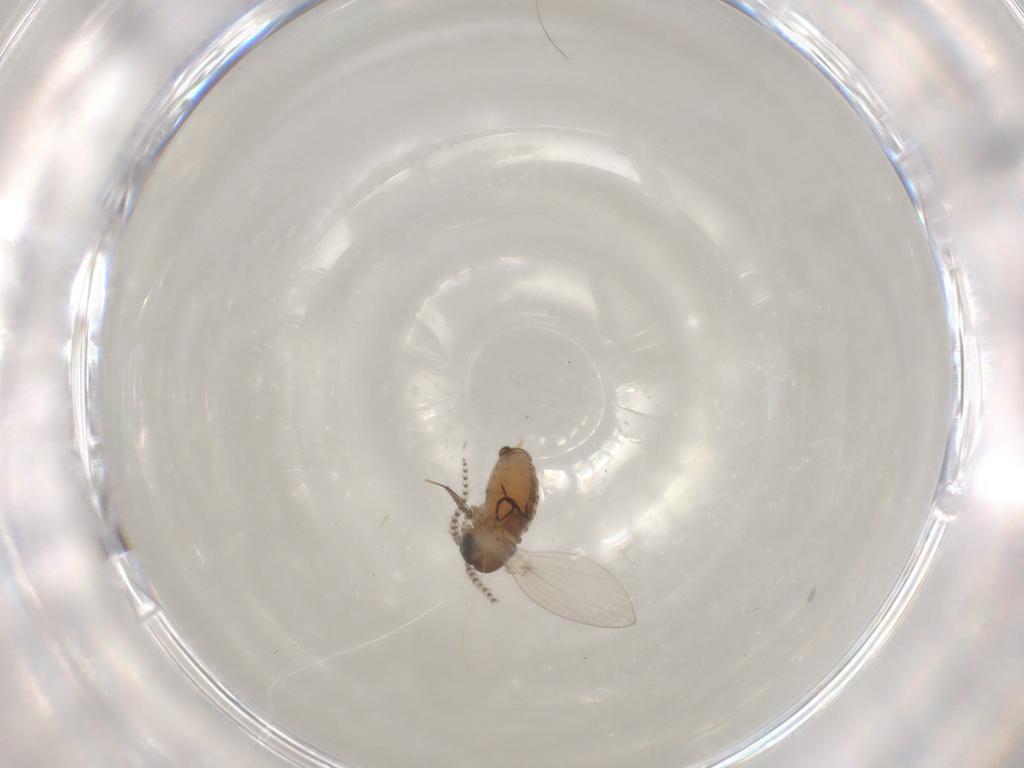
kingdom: Animalia
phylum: Arthropoda
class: Insecta
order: Diptera
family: Psychodidae
